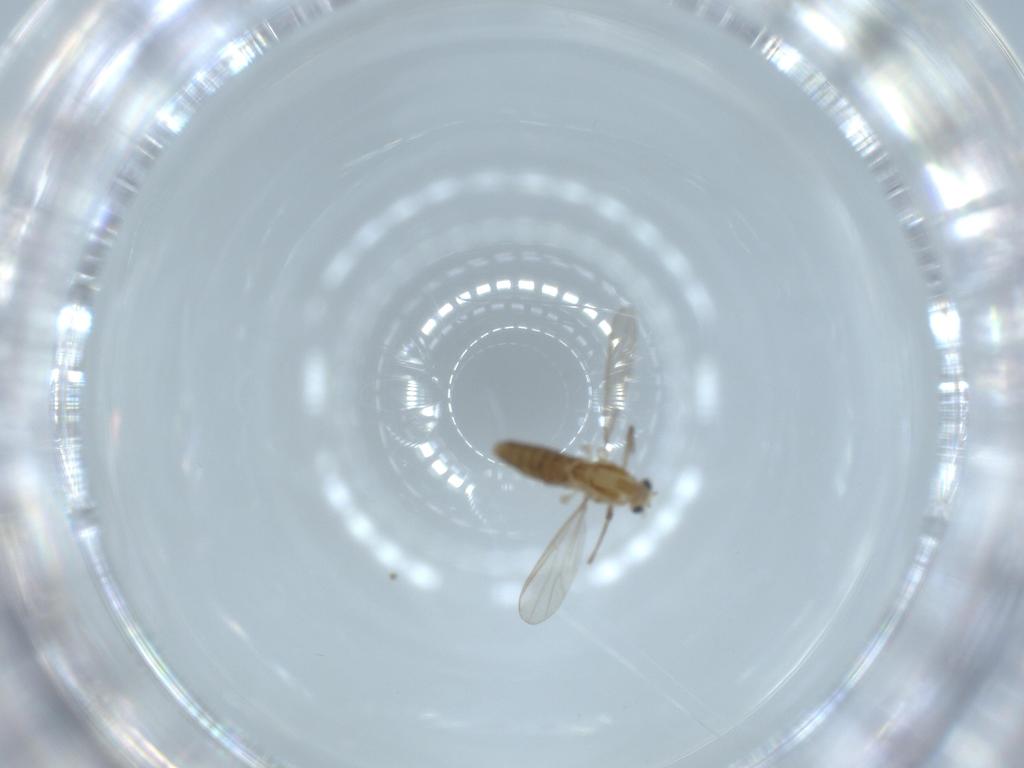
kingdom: Animalia
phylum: Arthropoda
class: Insecta
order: Diptera
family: Chironomidae
